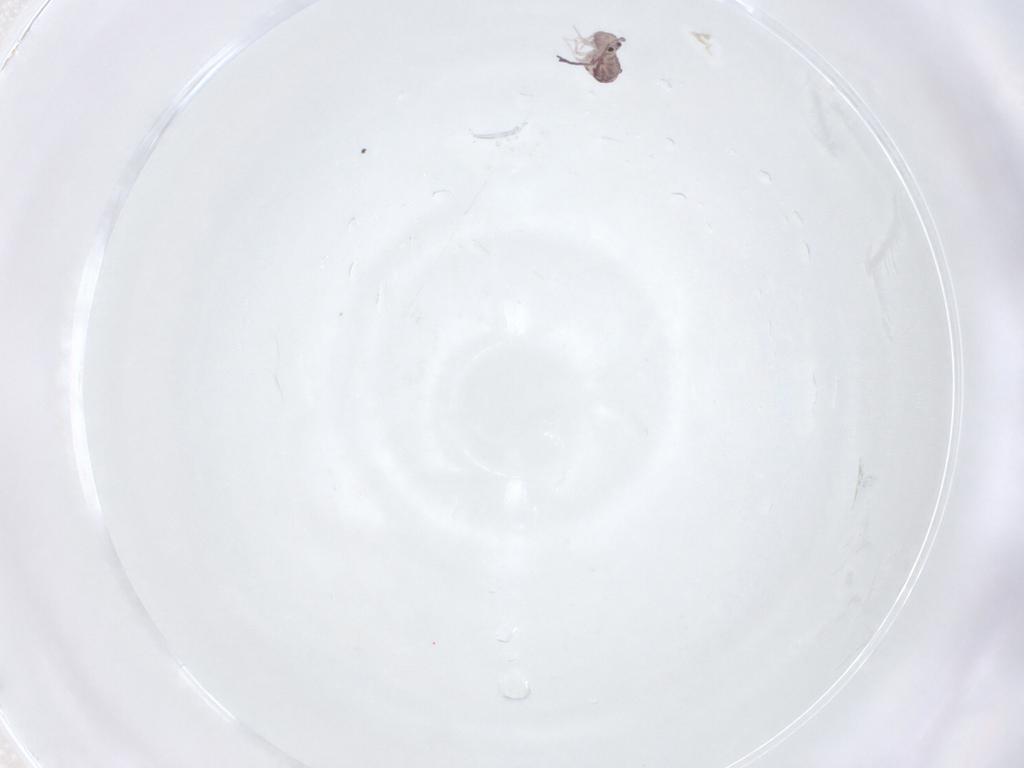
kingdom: Animalia
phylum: Arthropoda
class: Collembola
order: Symphypleona
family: Dicyrtomidae
